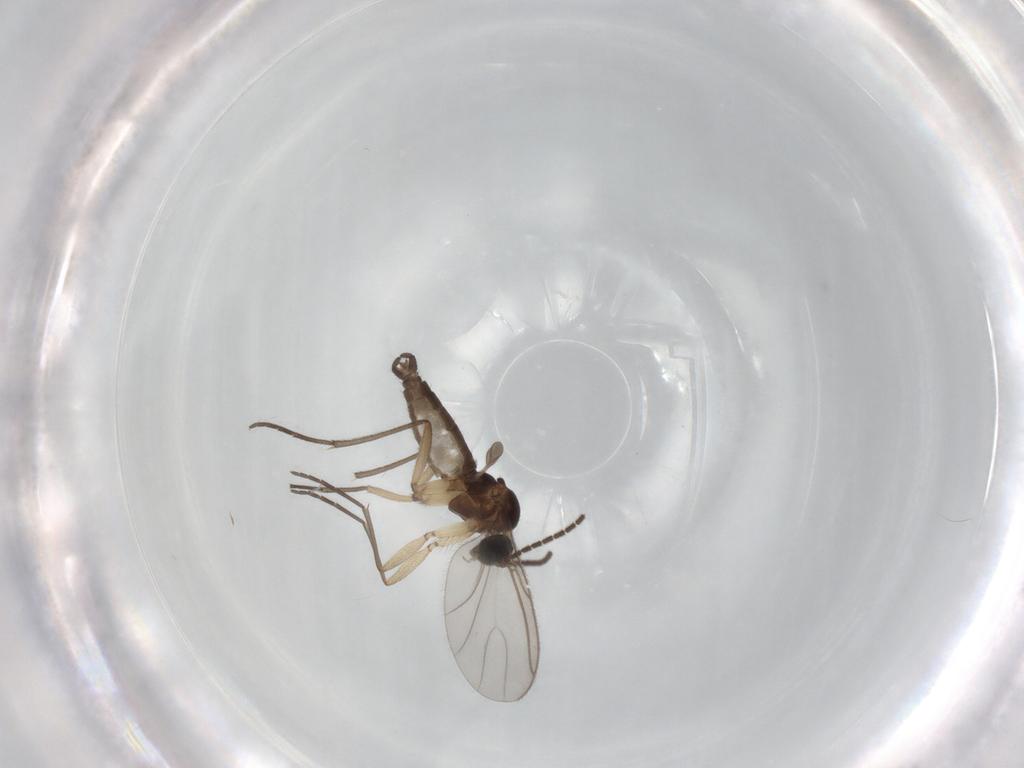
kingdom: Animalia
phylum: Arthropoda
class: Insecta
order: Diptera
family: Sciaridae
